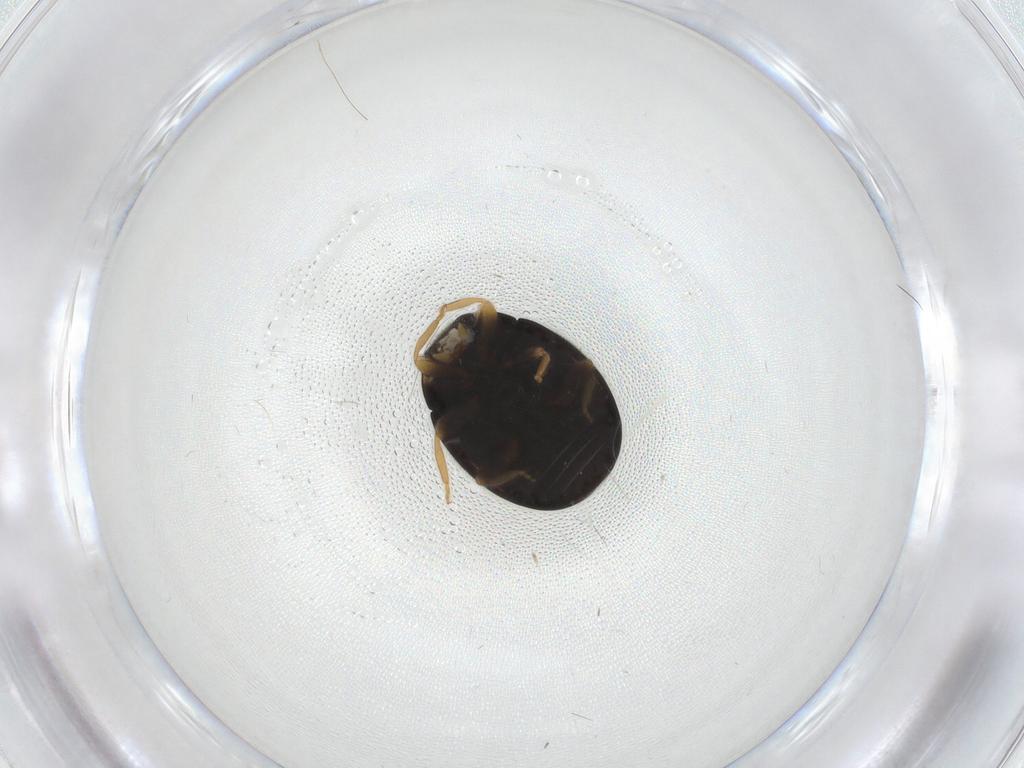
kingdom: Animalia
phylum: Arthropoda
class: Insecta
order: Coleoptera
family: Coccinellidae
